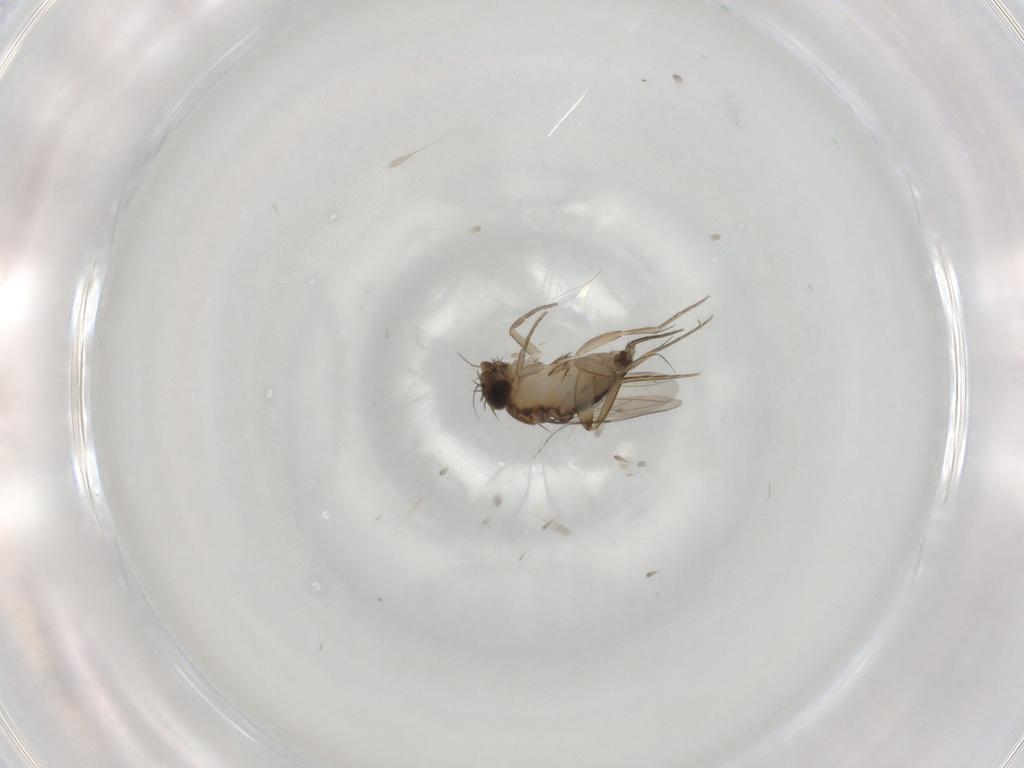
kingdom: Animalia
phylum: Arthropoda
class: Insecta
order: Diptera
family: Phoridae
